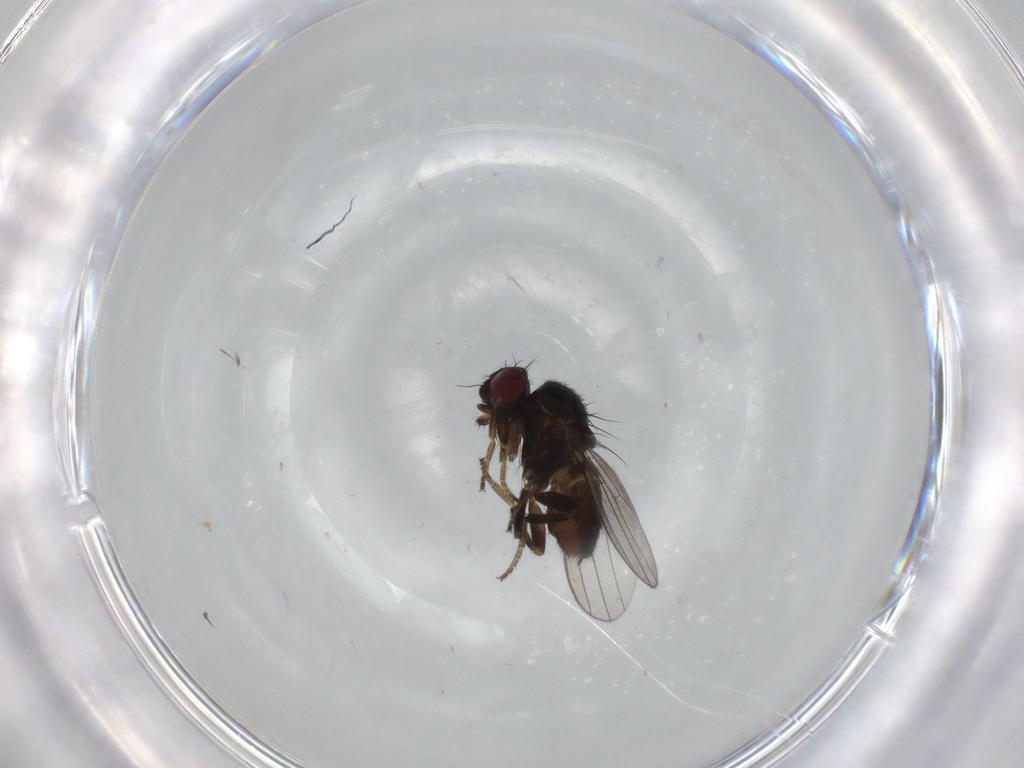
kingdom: Animalia
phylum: Arthropoda
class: Insecta
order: Diptera
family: Milichiidae
